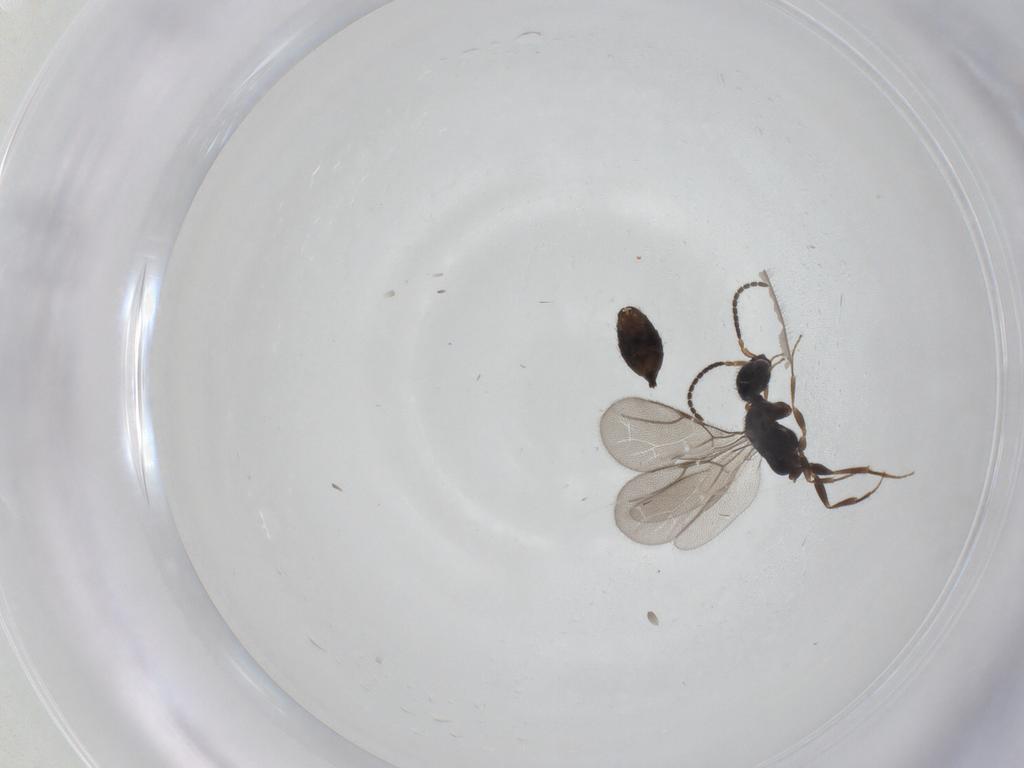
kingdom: Animalia
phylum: Arthropoda
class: Insecta
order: Hymenoptera
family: Bethylidae
